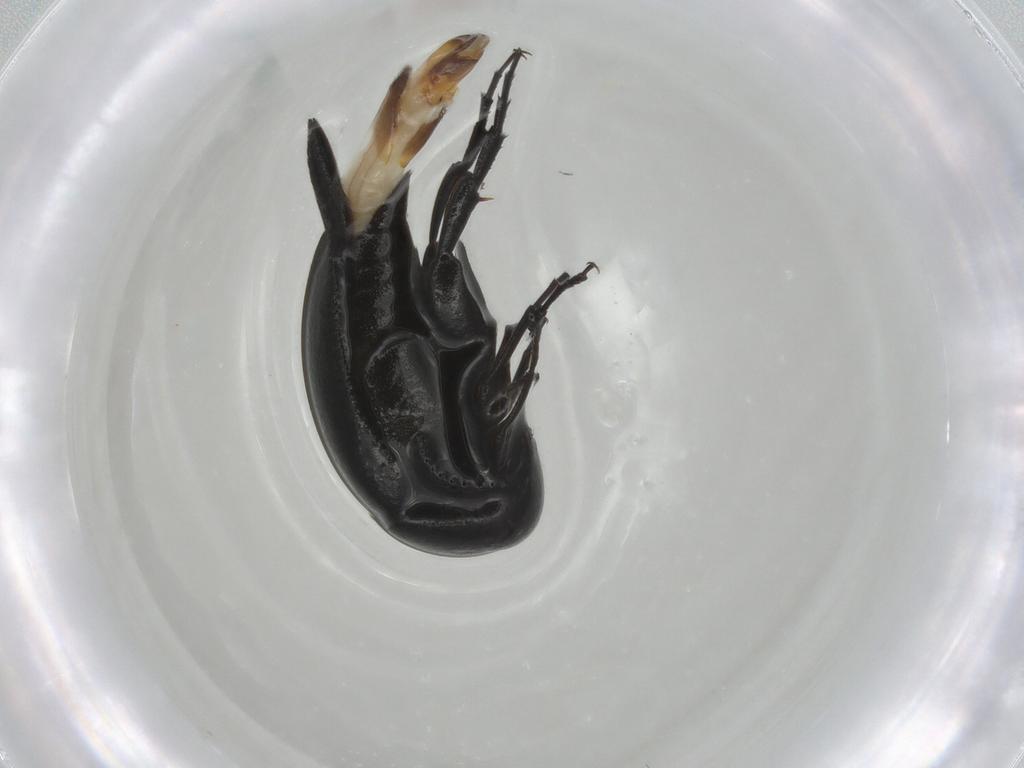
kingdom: Animalia
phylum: Arthropoda
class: Insecta
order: Coleoptera
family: Mordellidae
